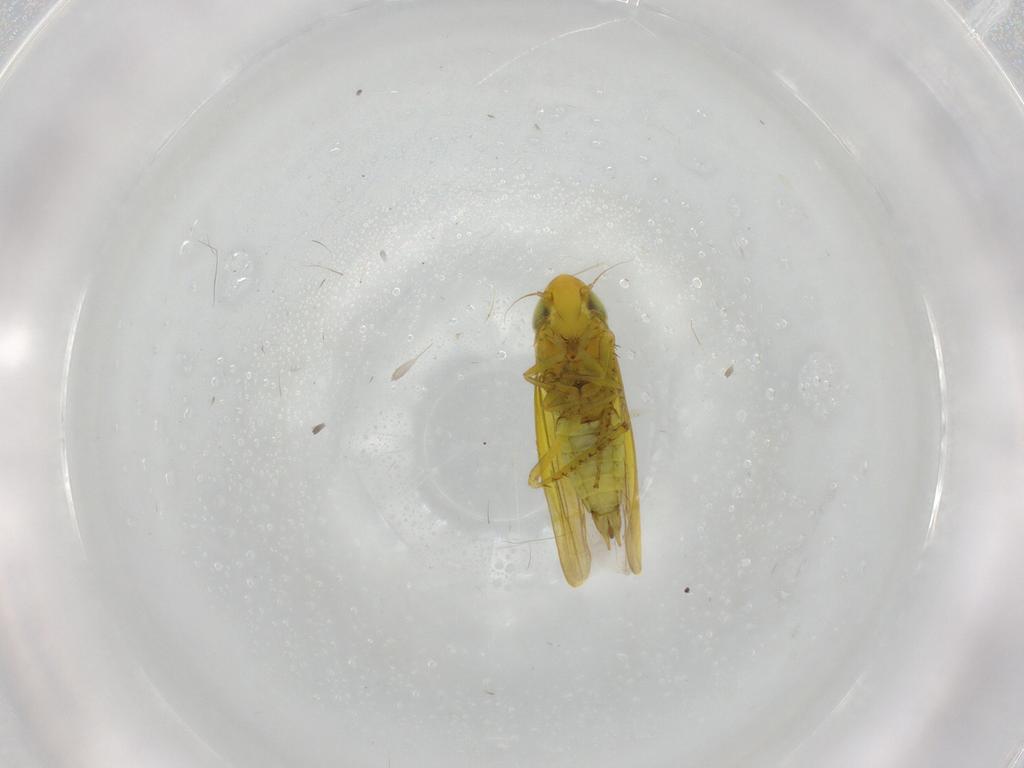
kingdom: Animalia
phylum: Arthropoda
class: Insecta
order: Hemiptera
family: Cicadellidae
